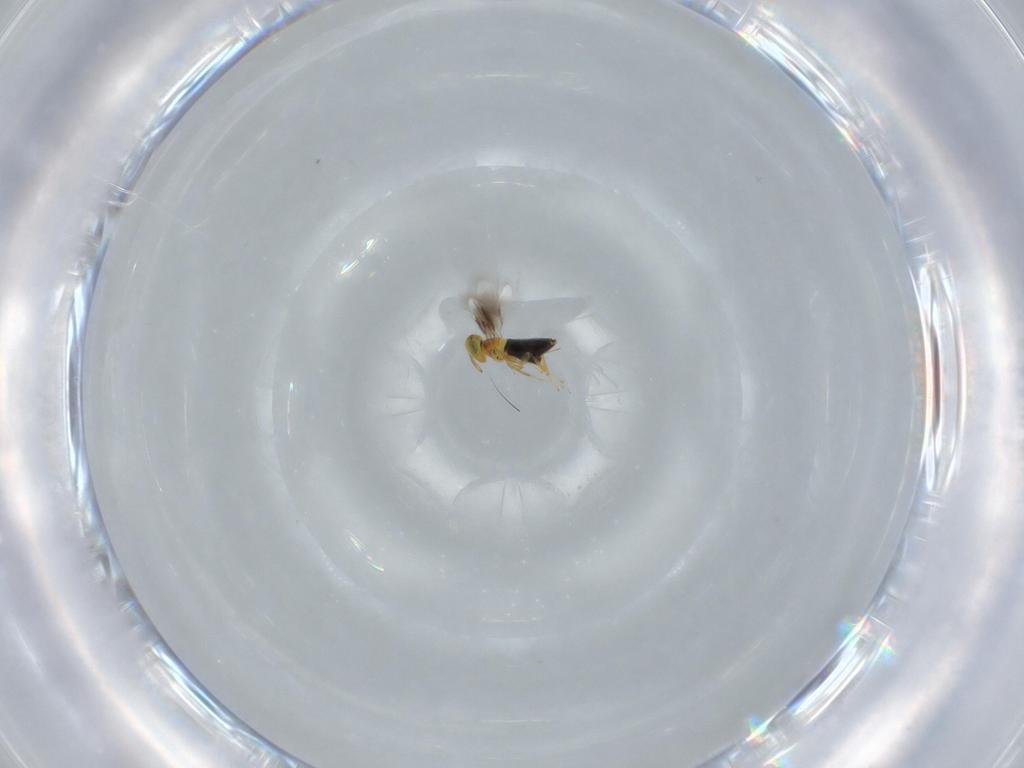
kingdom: Animalia
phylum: Arthropoda
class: Insecta
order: Hymenoptera
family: Signiphoridae
